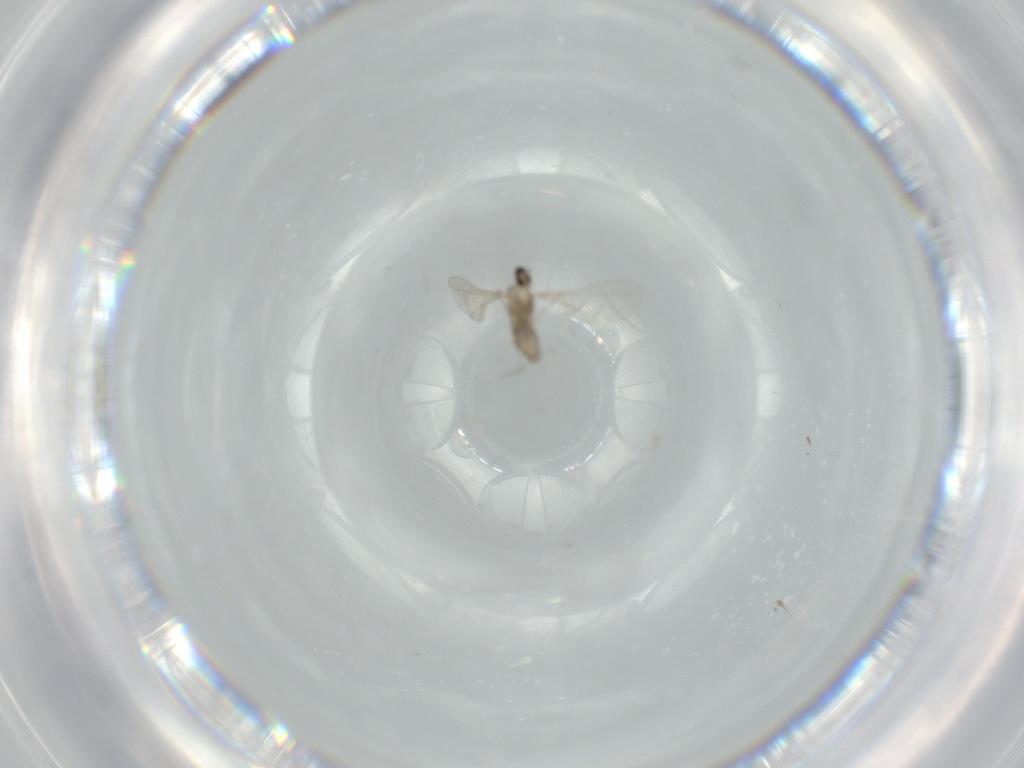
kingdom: Animalia
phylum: Arthropoda
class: Insecta
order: Diptera
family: Cecidomyiidae
